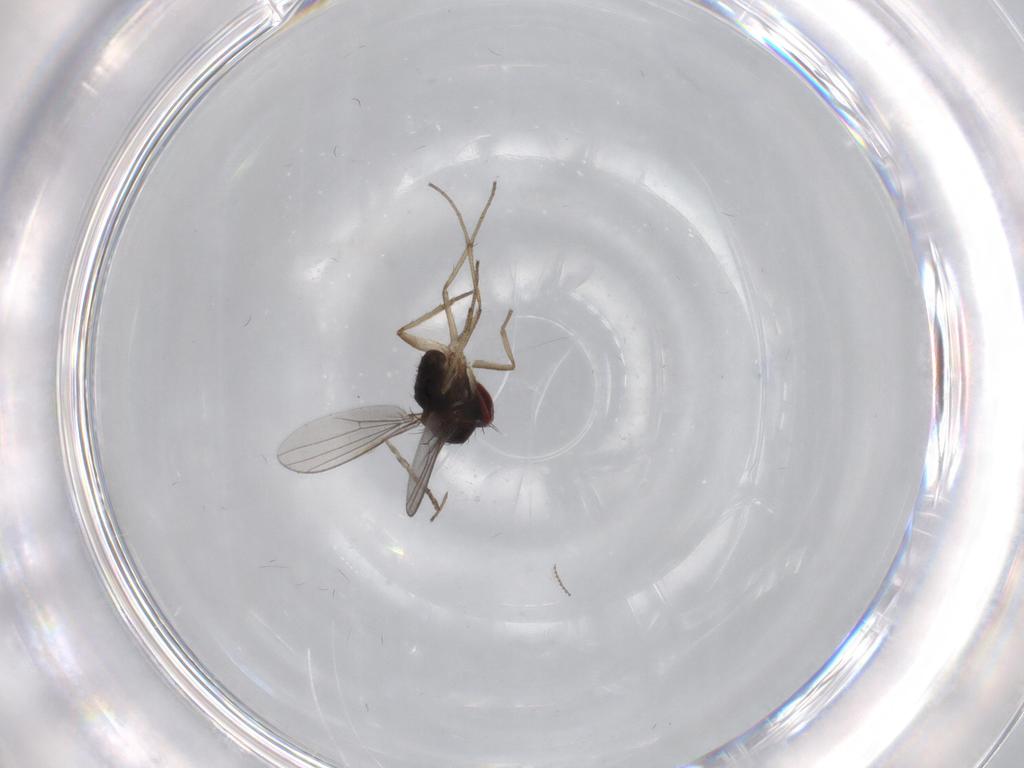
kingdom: Animalia
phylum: Arthropoda
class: Insecta
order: Diptera
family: Dolichopodidae
